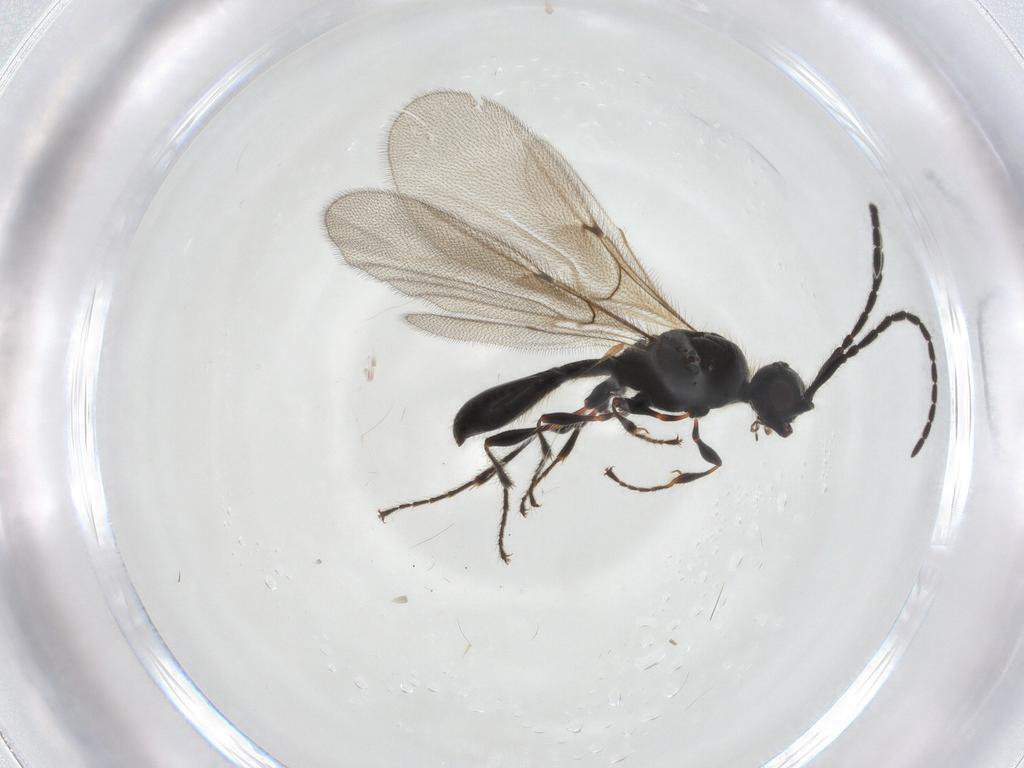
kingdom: Animalia
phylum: Arthropoda
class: Insecta
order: Hymenoptera
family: Diapriidae
